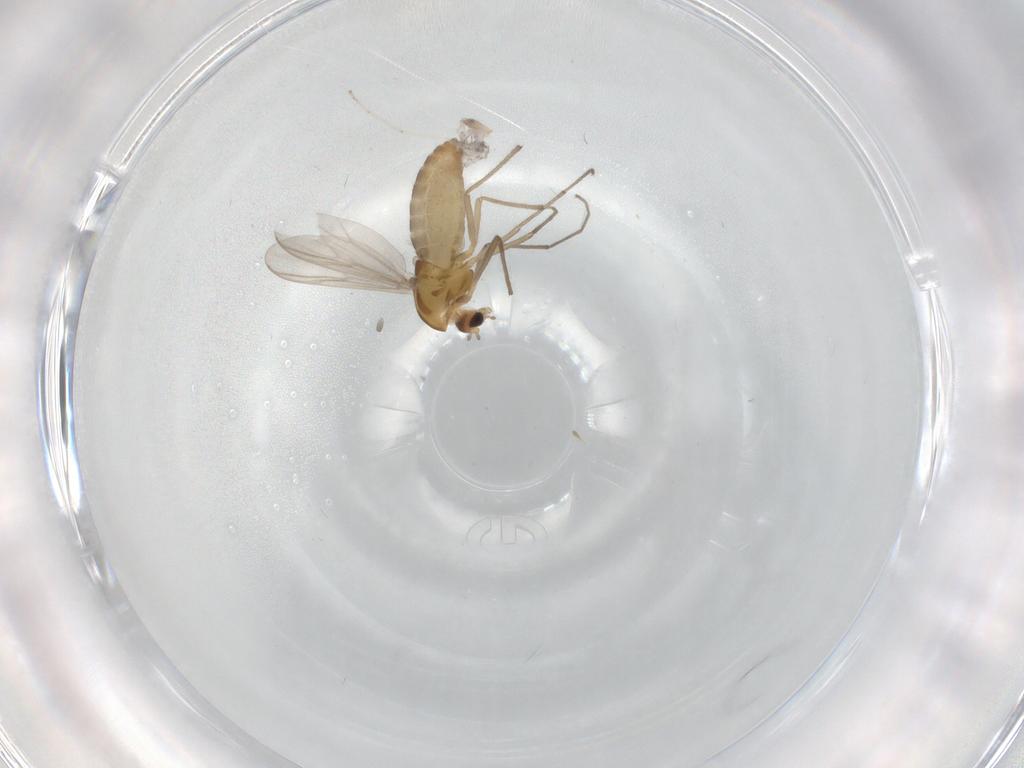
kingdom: Animalia
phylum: Arthropoda
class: Insecta
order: Diptera
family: Chironomidae
